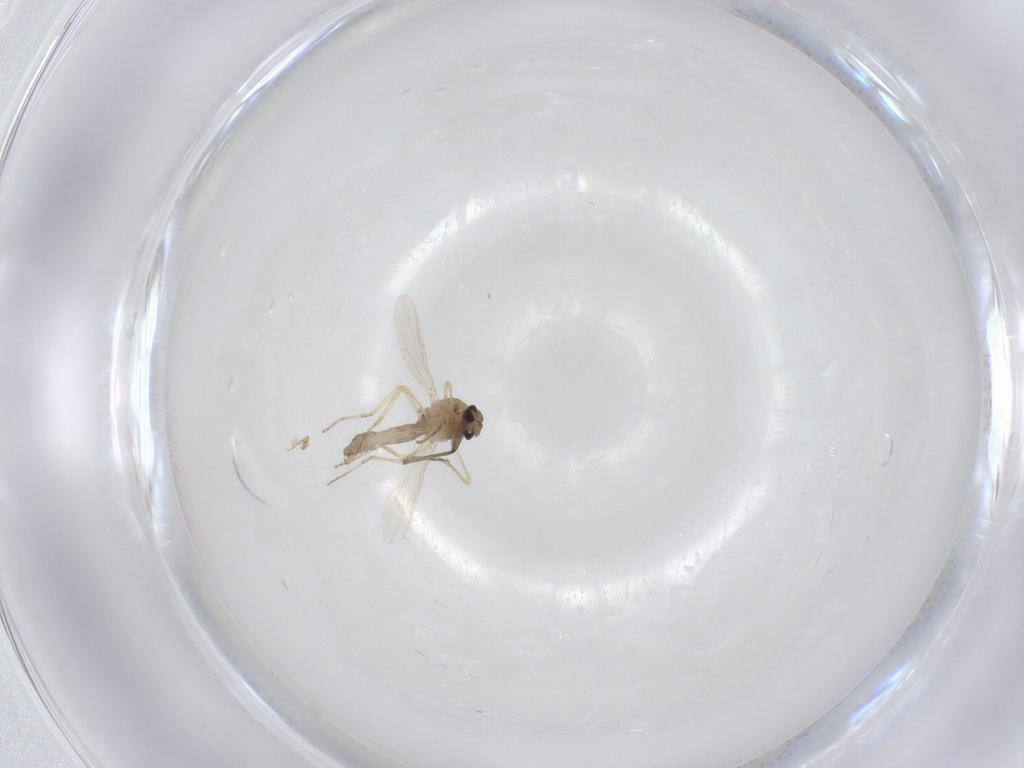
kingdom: Animalia
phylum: Arthropoda
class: Insecta
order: Diptera
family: Ceratopogonidae
